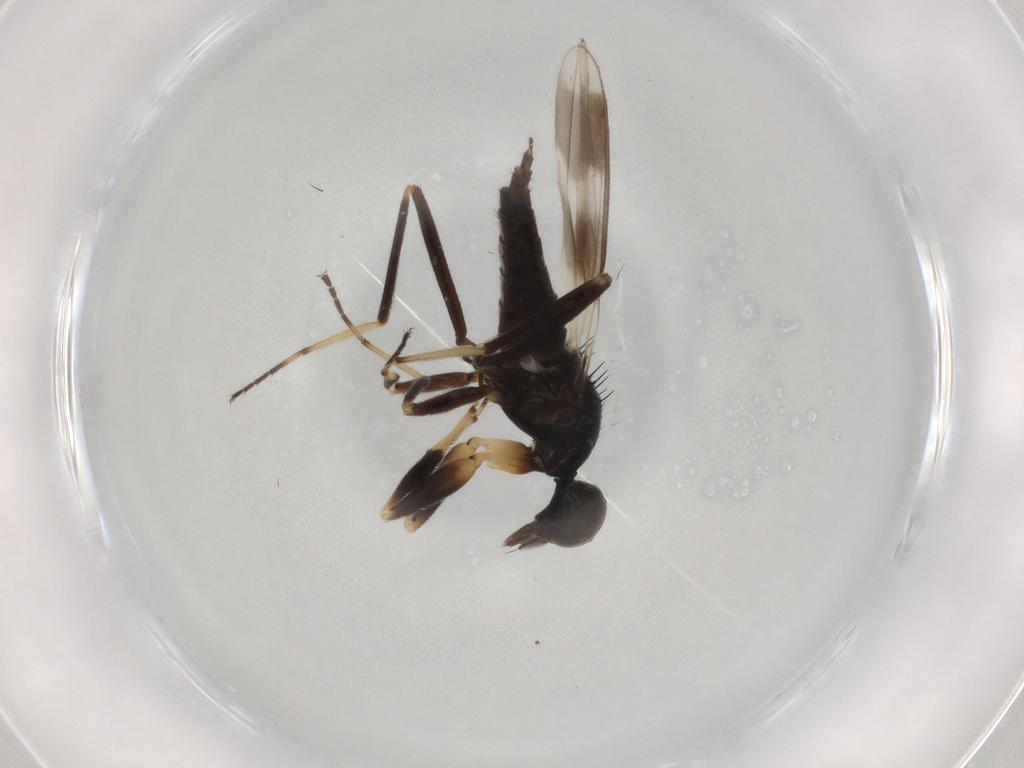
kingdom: Animalia
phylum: Arthropoda
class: Insecta
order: Diptera
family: Hybotidae
